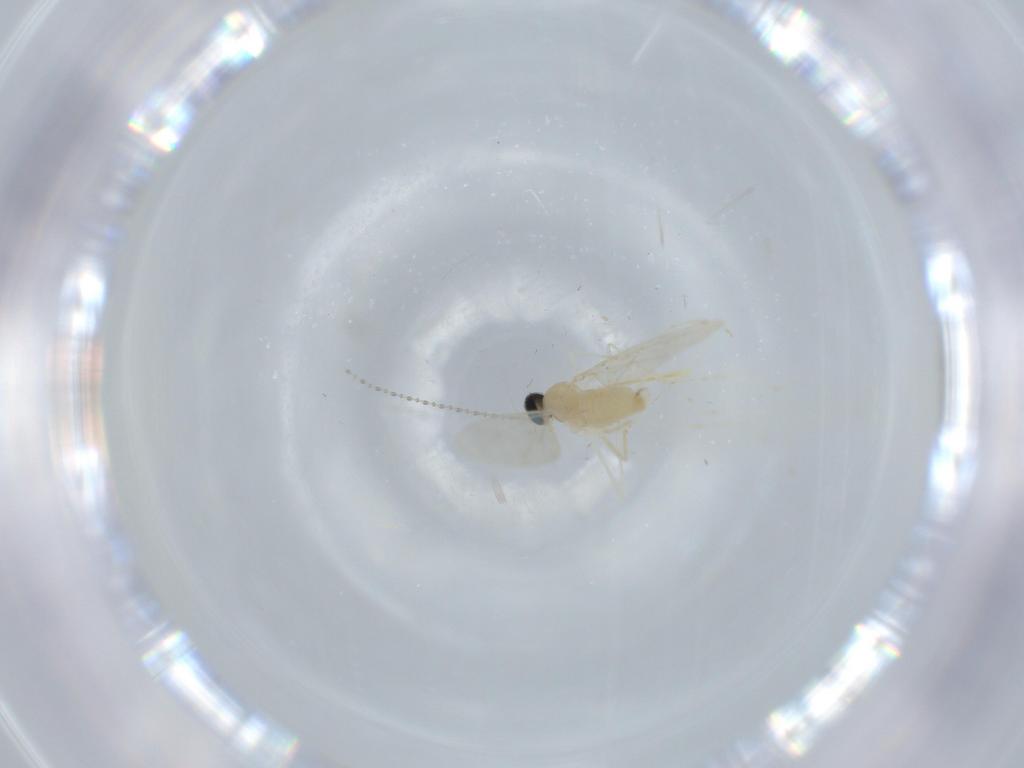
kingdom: Animalia
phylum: Arthropoda
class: Insecta
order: Diptera
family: Cecidomyiidae
